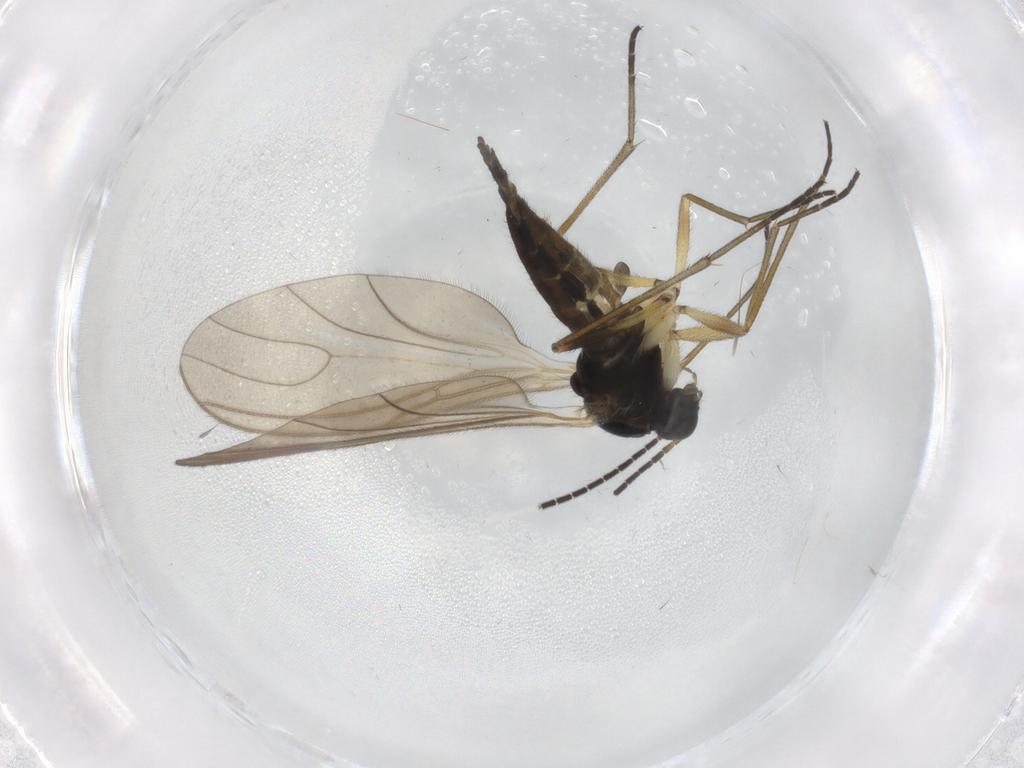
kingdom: Animalia
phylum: Arthropoda
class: Insecta
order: Diptera
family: Sciaridae
